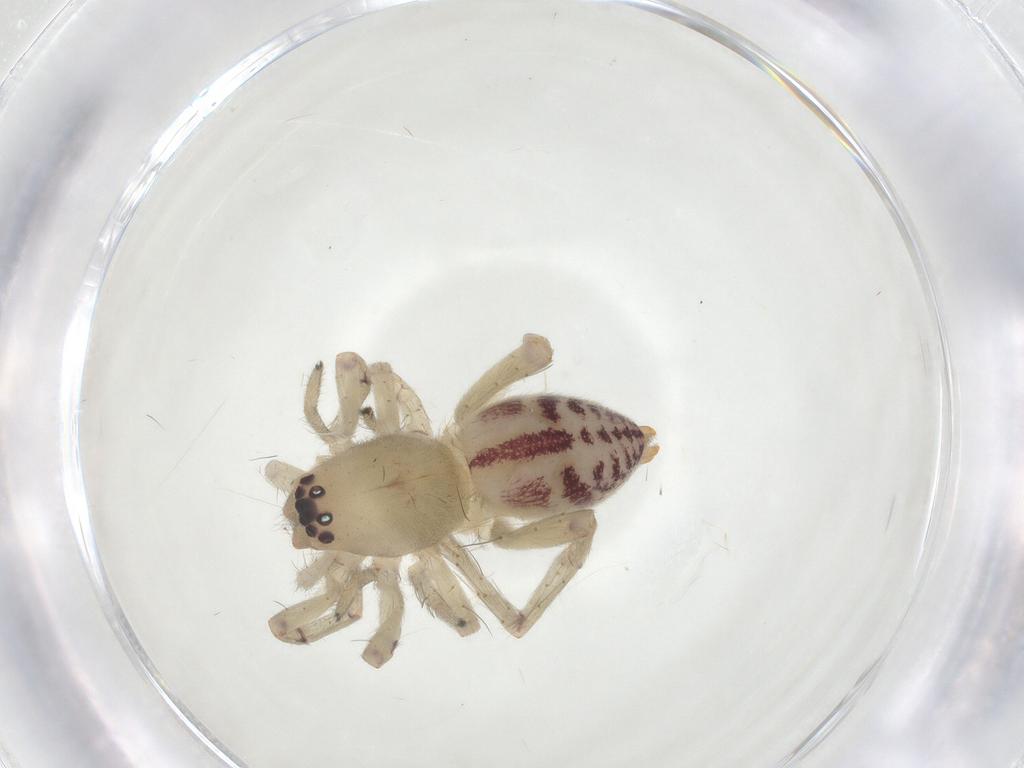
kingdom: Animalia
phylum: Arthropoda
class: Arachnida
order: Araneae
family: Clubionidae
